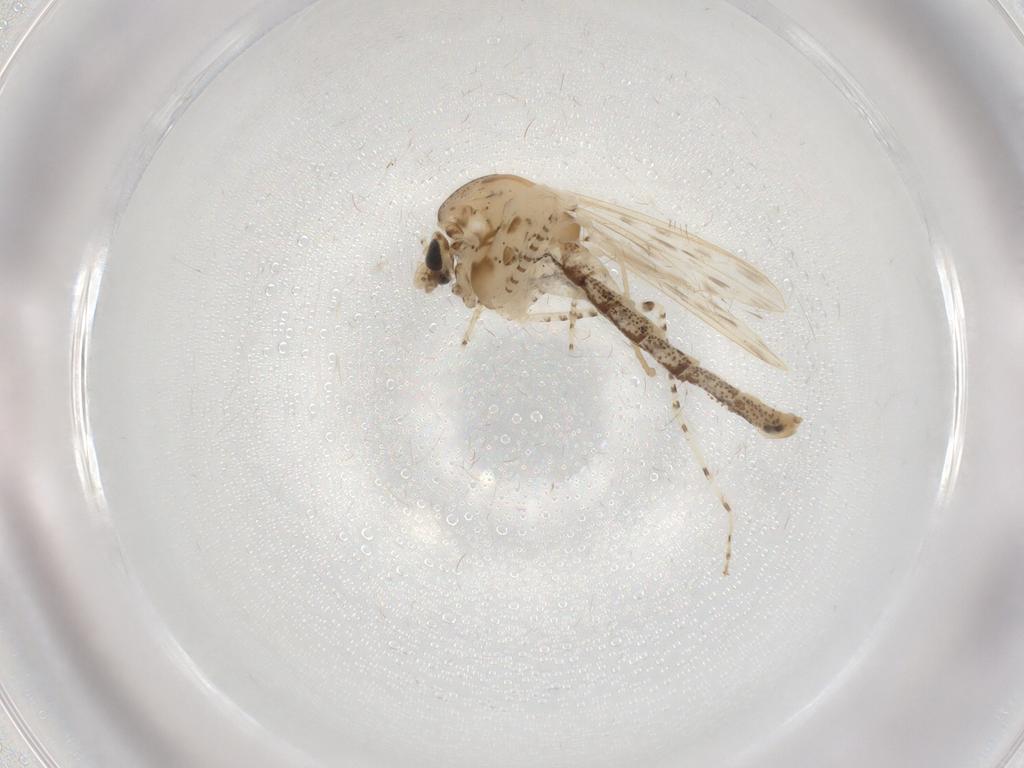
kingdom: Animalia
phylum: Arthropoda
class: Insecta
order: Diptera
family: Chaoboridae
